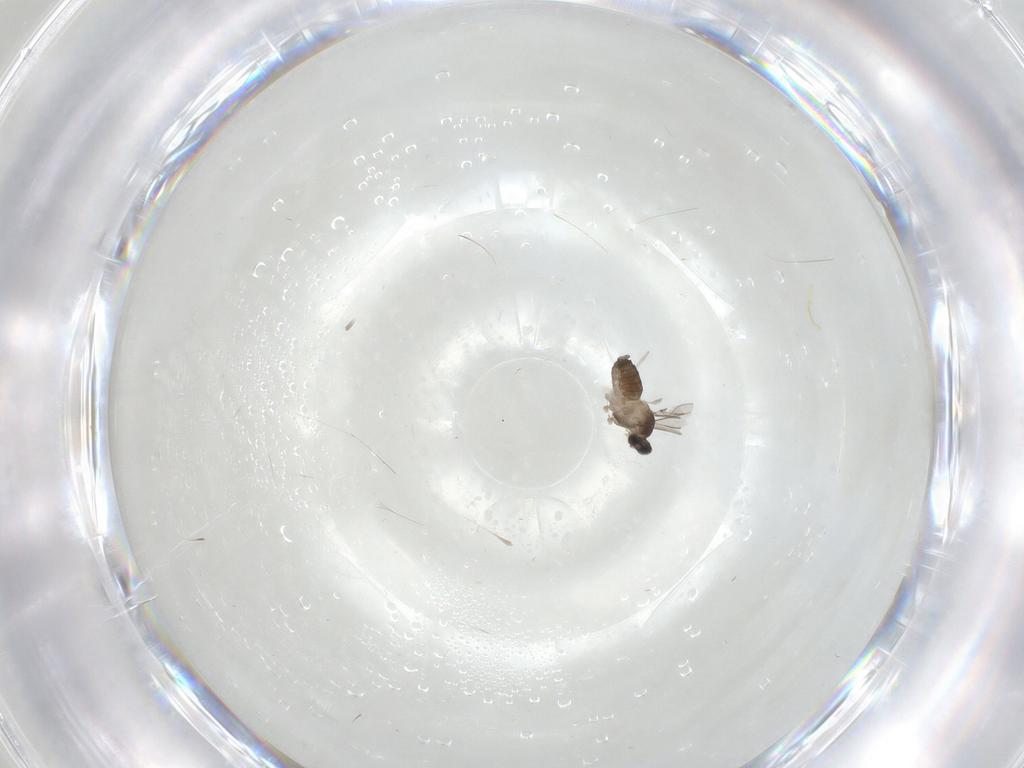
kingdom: Animalia
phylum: Arthropoda
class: Insecta
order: Diptera
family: Cecidomyiidae
